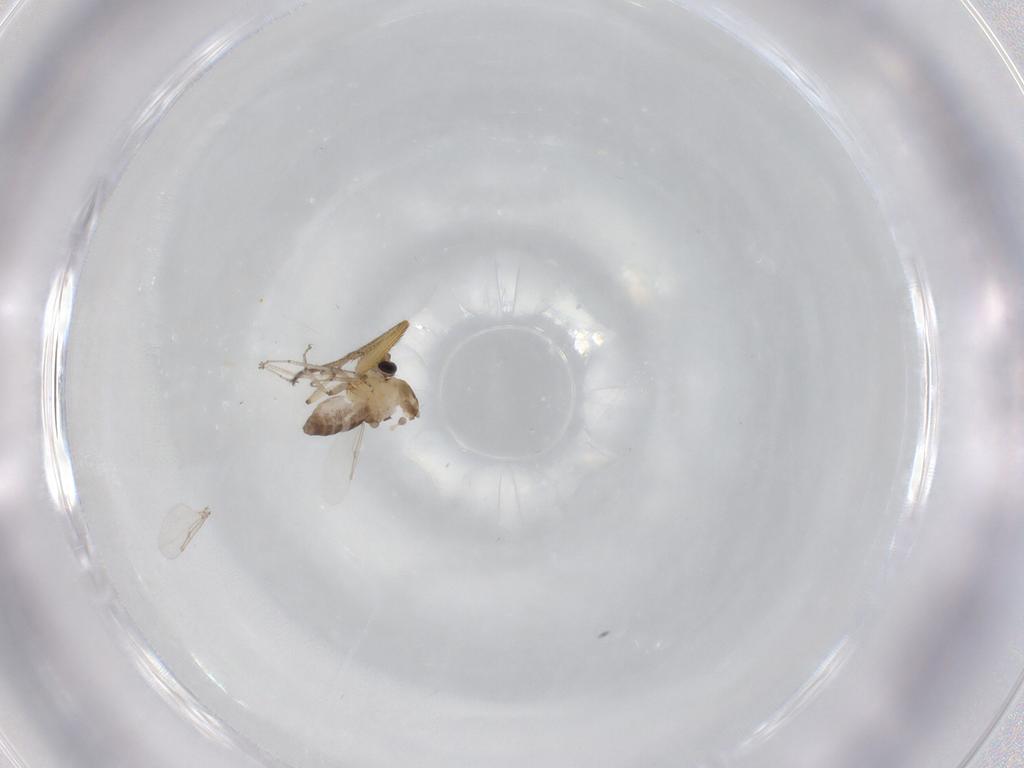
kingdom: Animalia
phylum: Arthropoda
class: Insecta
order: Diptera
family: Ceratopogonidae
